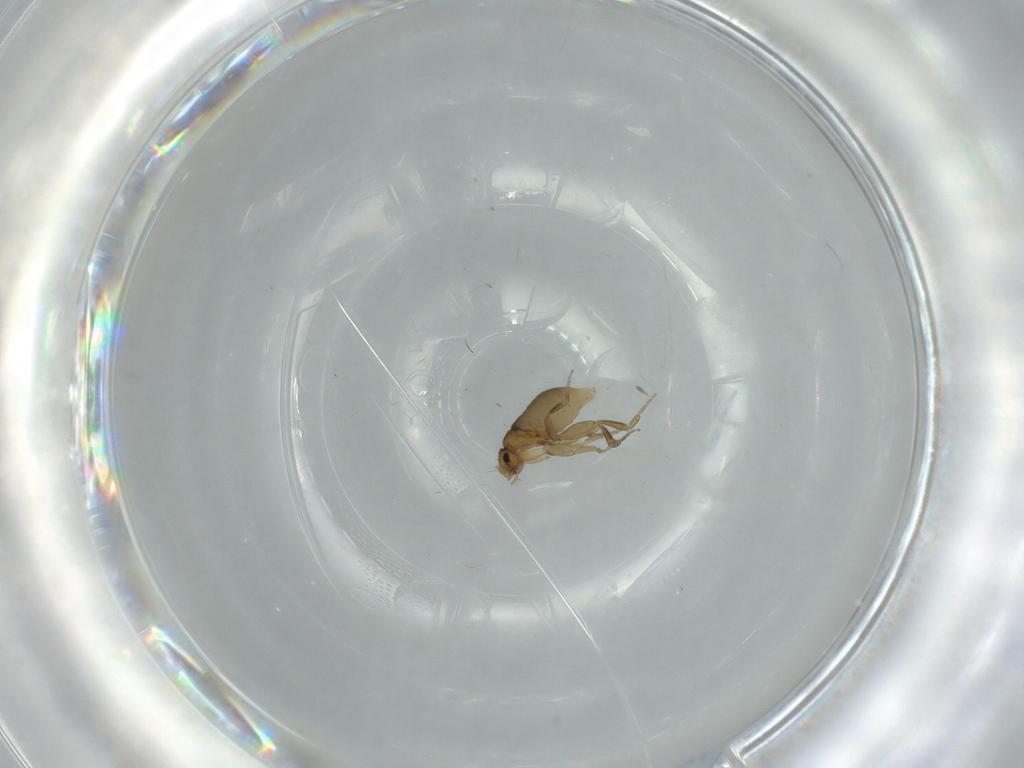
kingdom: Animalia
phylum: Arthropoda
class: Insecta
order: Diptera
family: Phoridae
